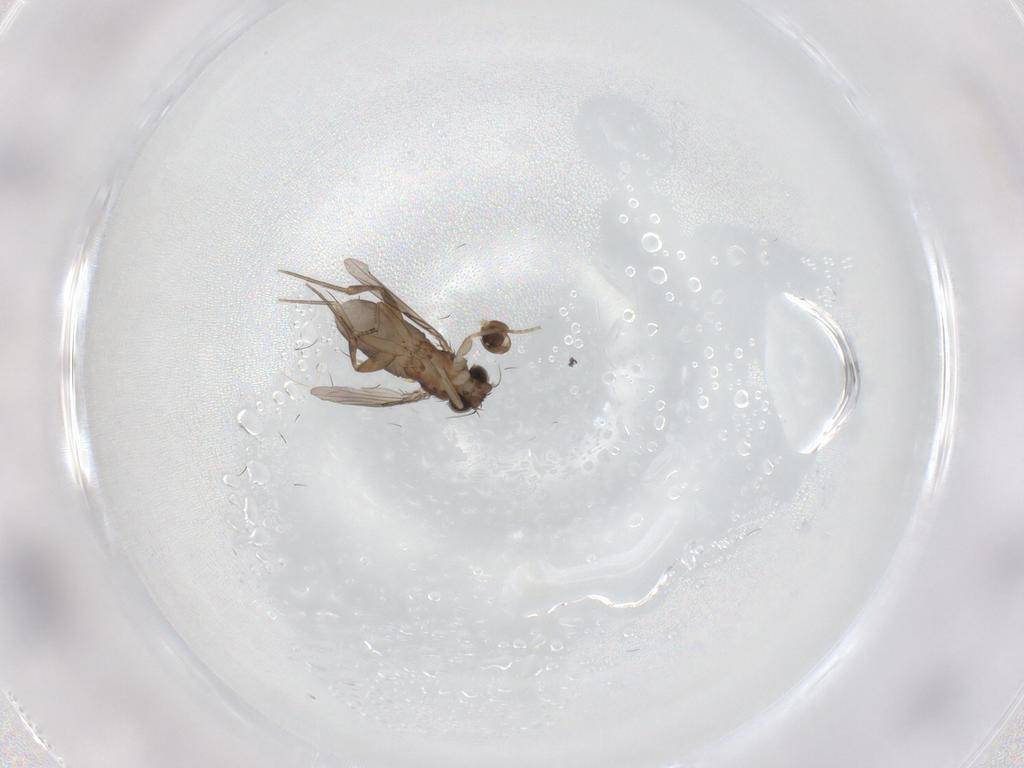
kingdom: Animalia
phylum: Arthropoda
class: Insecta
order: Diptera
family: Phoridae
